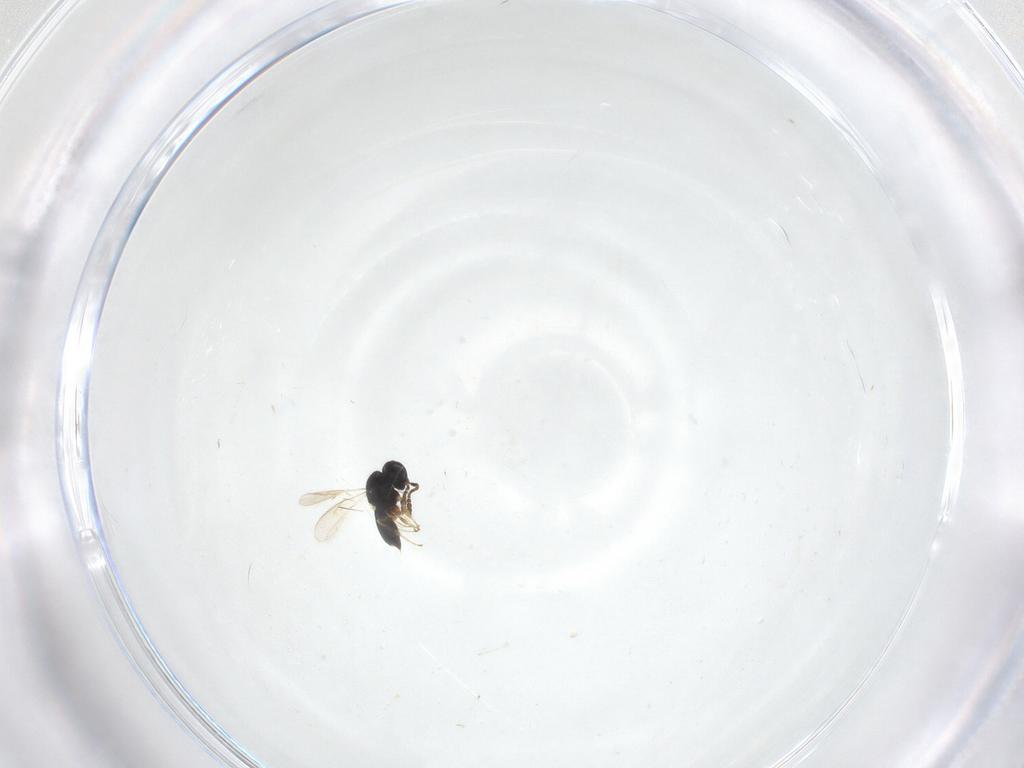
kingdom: Animalia
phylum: Arthropoda
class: Insecta
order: Hymenoptera
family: Scelionidae
